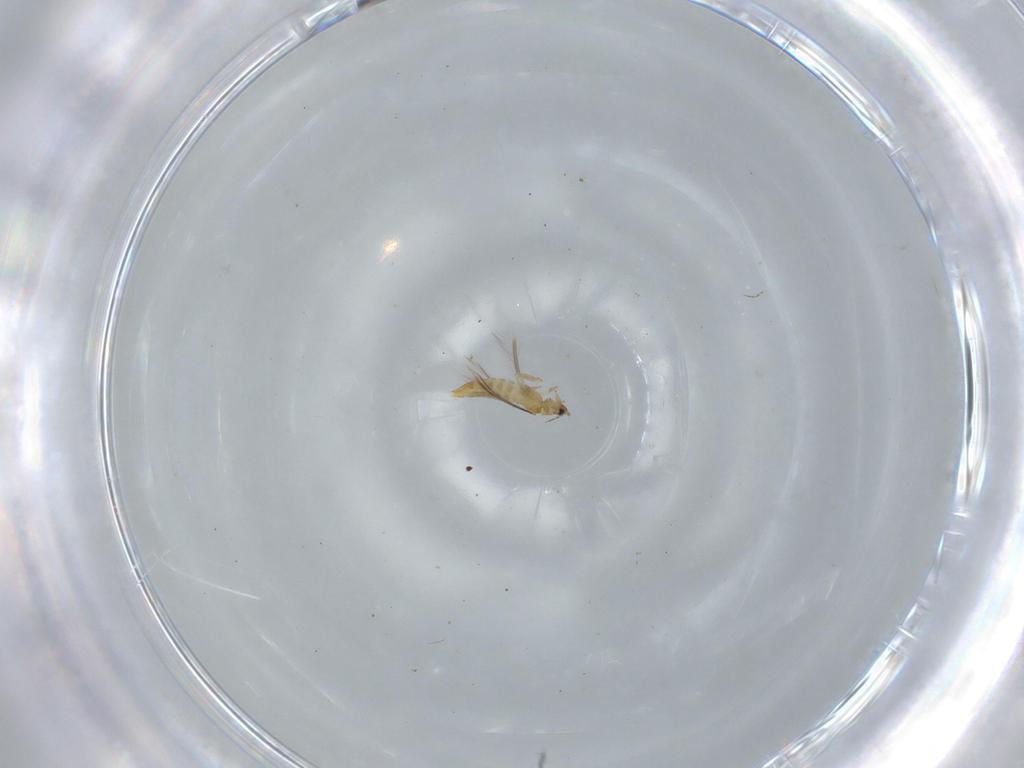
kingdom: Animalia
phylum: Arthropoda
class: Insecta
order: Thysanoptera
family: Thripidae
